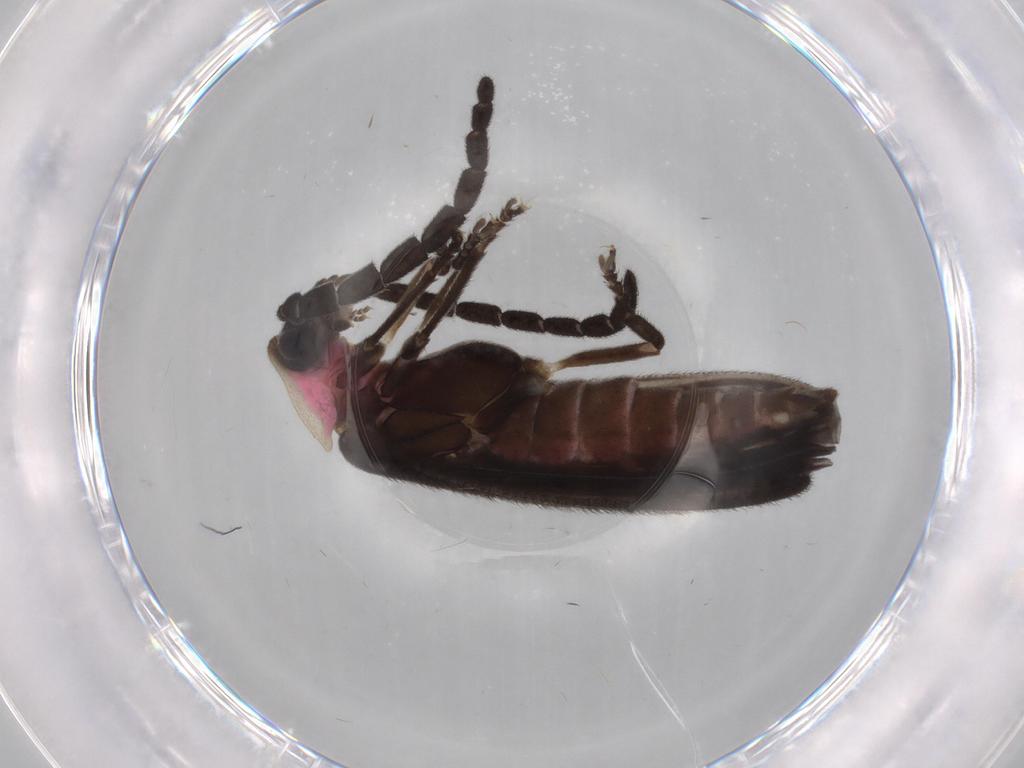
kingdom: Animalia
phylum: Arthropoda
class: Insecta
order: Coleoptera
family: Lampyridae
